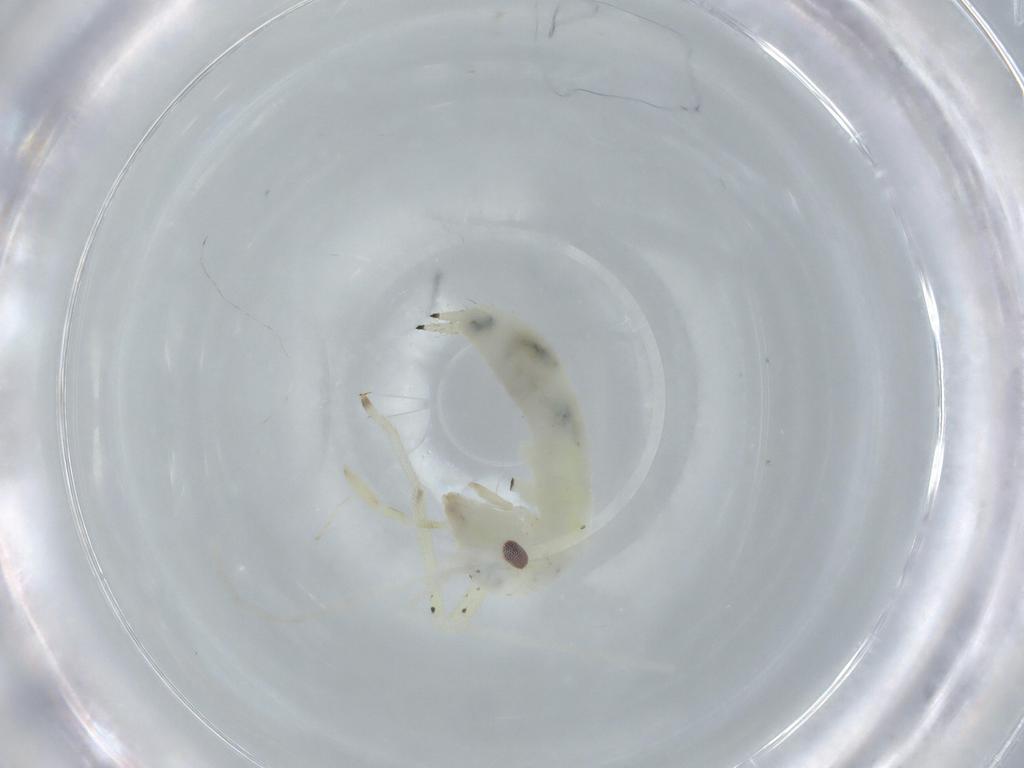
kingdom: Animalia
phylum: Arthropoda
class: Insecta
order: Orthoptera
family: Oecanthidae
